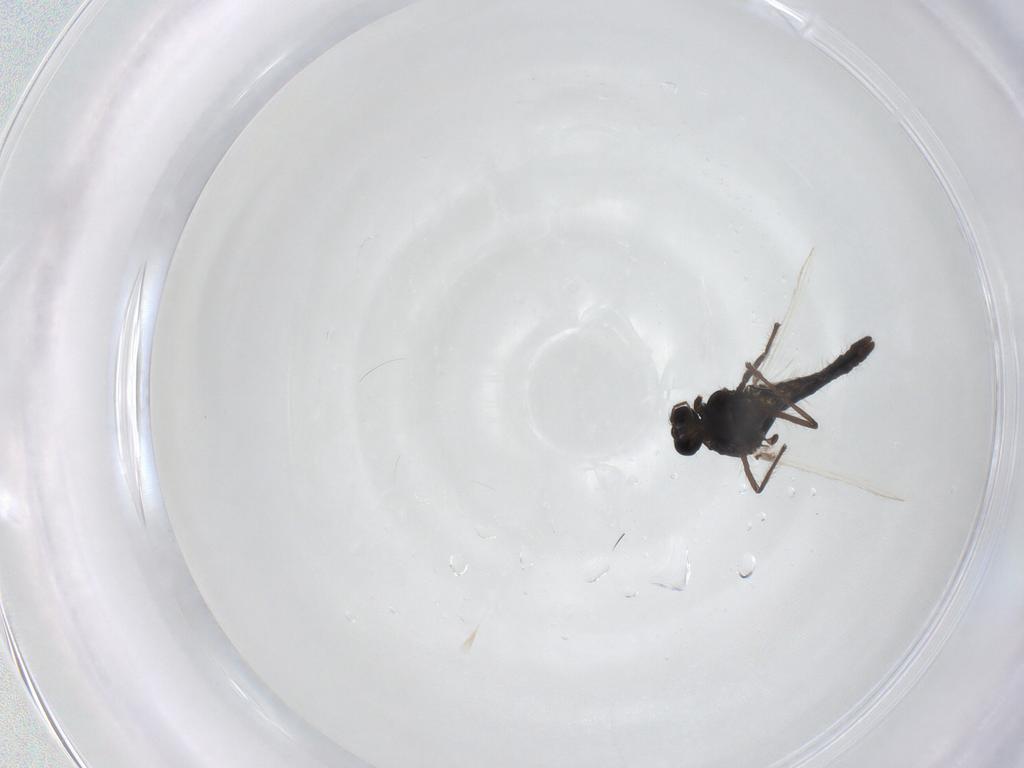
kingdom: Animalia
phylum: Arthropoda
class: Insecta
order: Diptera
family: Chironomidae
